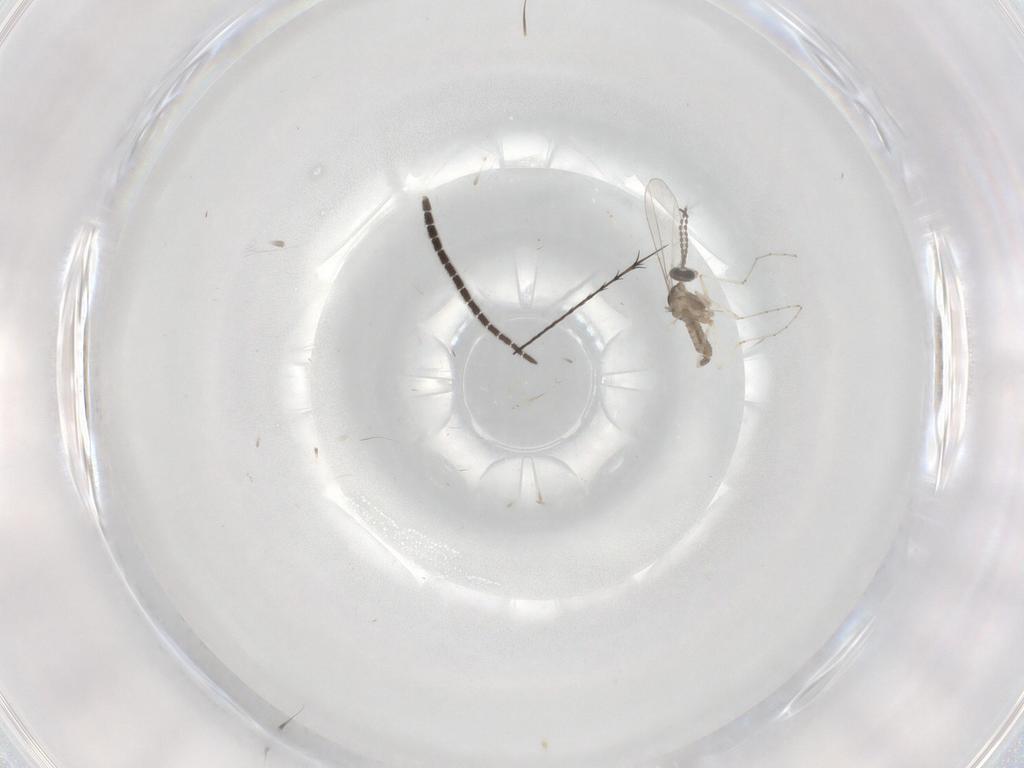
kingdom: Animalia
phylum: Arthropoda
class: Insecta
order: Diptera
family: Cecidomyiidae
